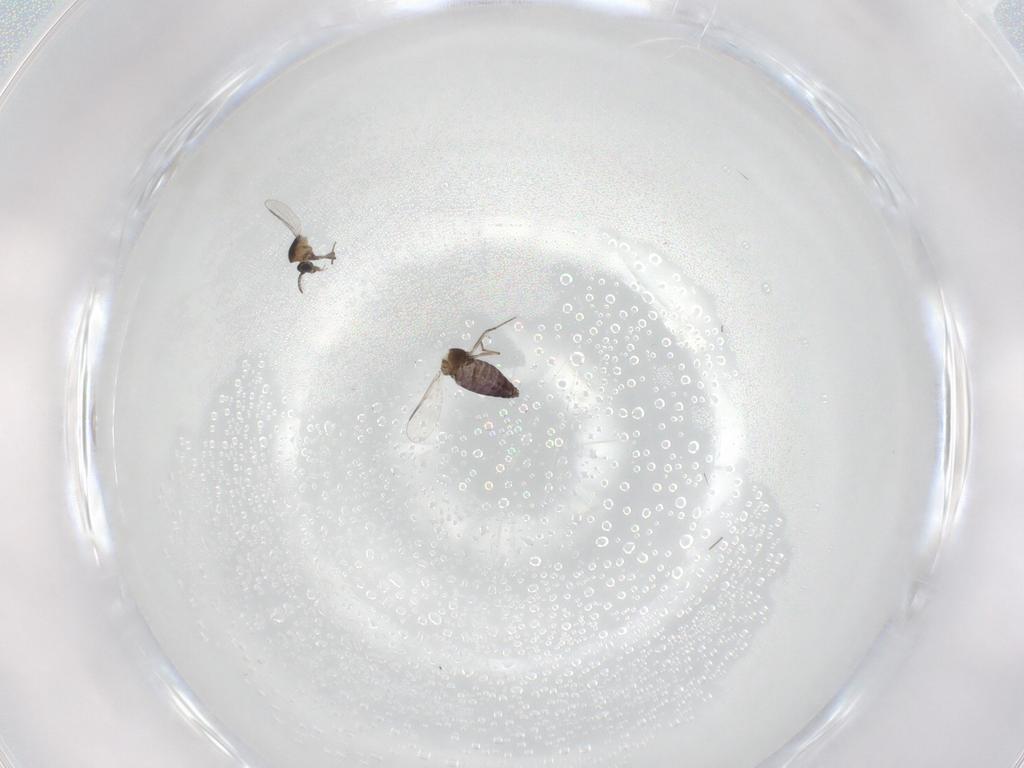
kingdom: Animalia
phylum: Arthropoda
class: Insecta
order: Diptera
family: Chironomidae
